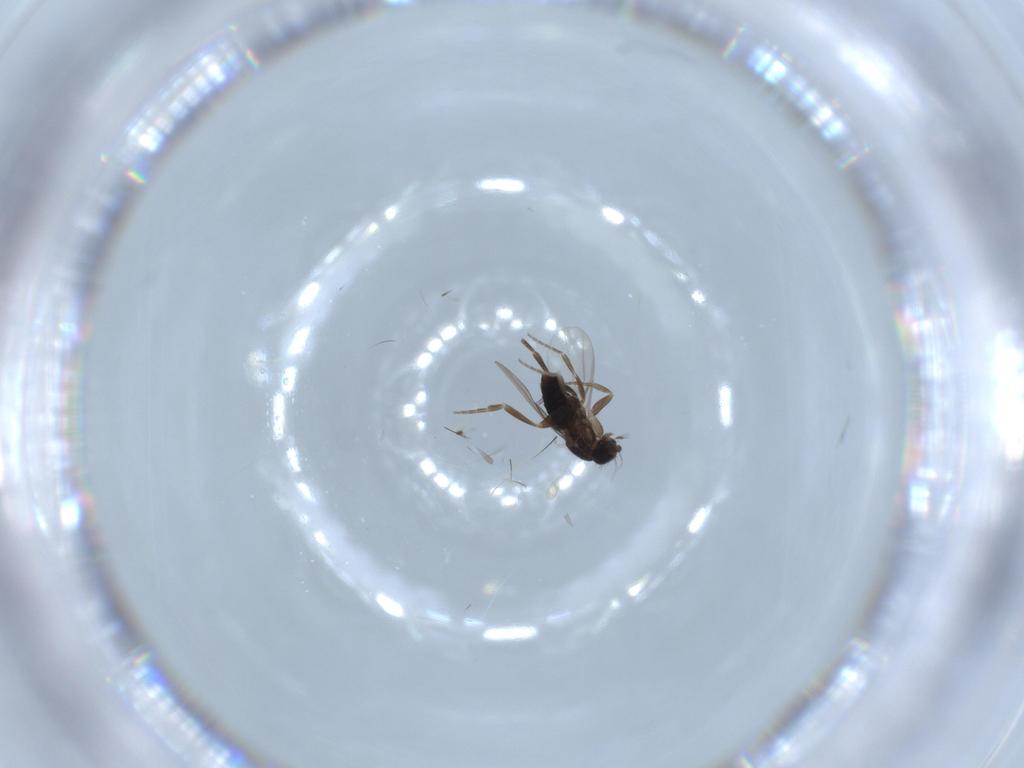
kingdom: Animalia
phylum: Arthropoda
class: Insecta
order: Diptera
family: Phoridae
